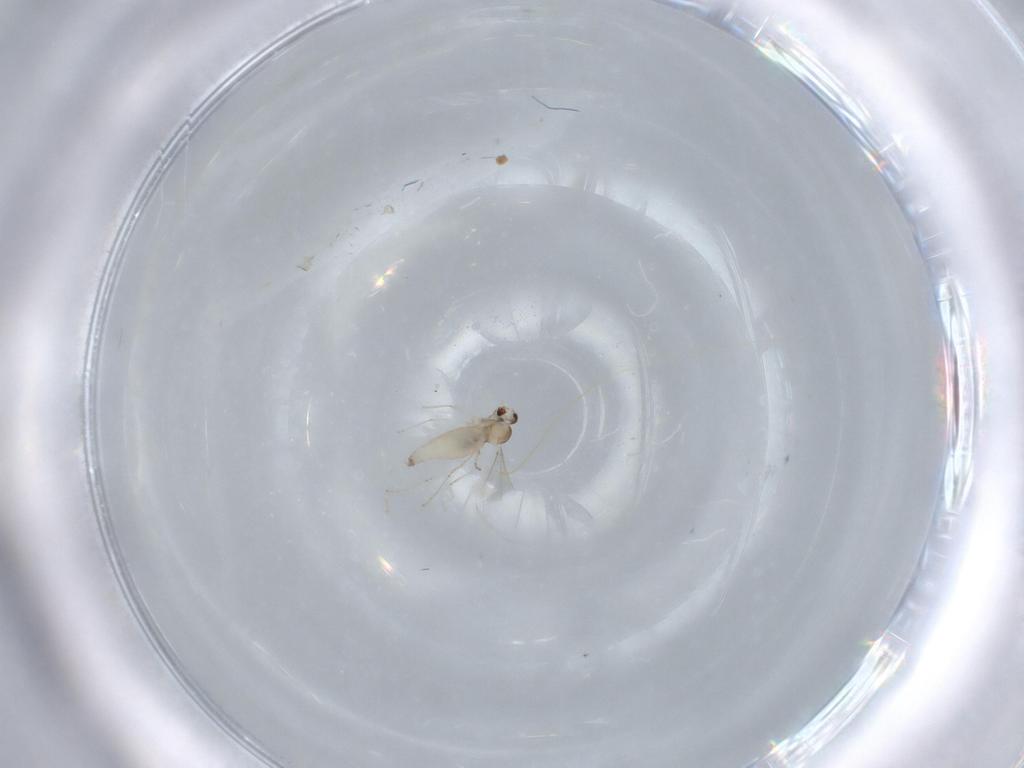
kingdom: Animalia
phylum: Arthropoda
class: Insecta
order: Diptera
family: Cecidomyiidae
